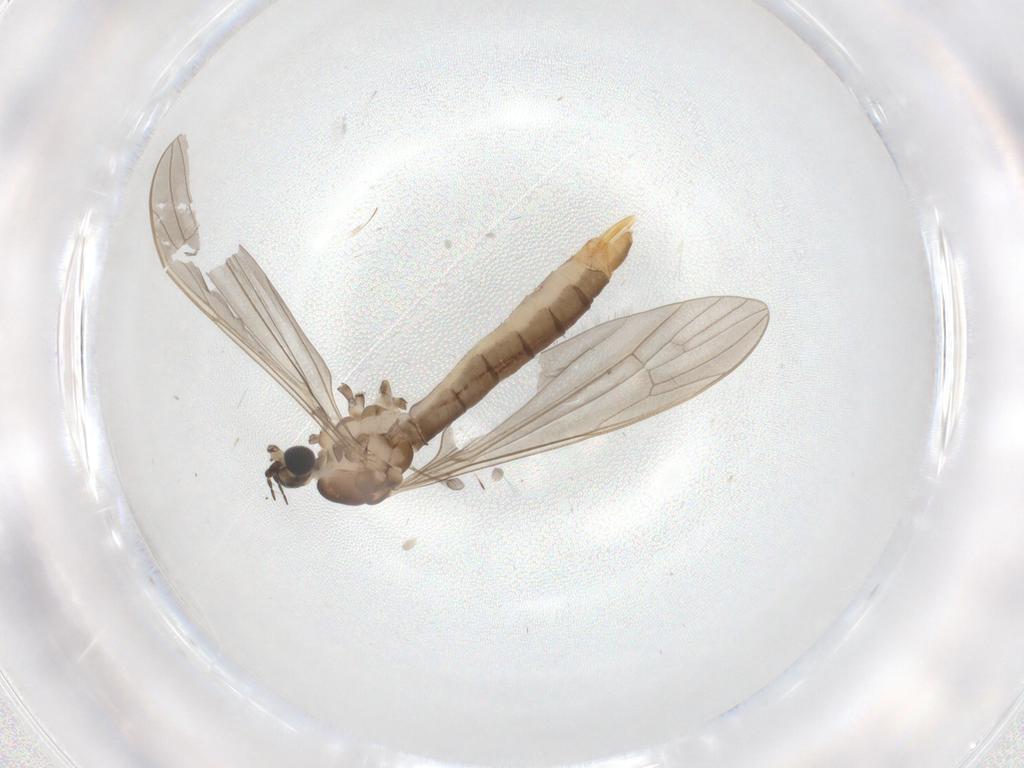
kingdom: Animalia
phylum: Arthropoda
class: Insecta
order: Diptera
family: Phoridae
